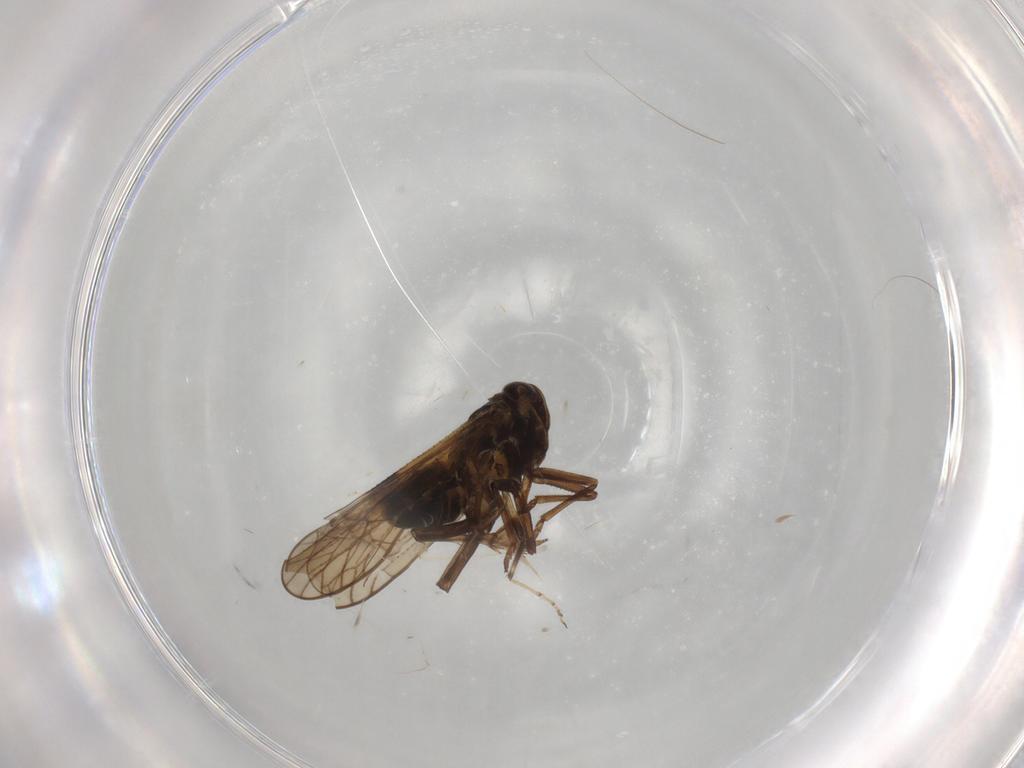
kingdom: Animalia
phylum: Arthropoda
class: Insecta
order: Hemiptera
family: Delphacidae
